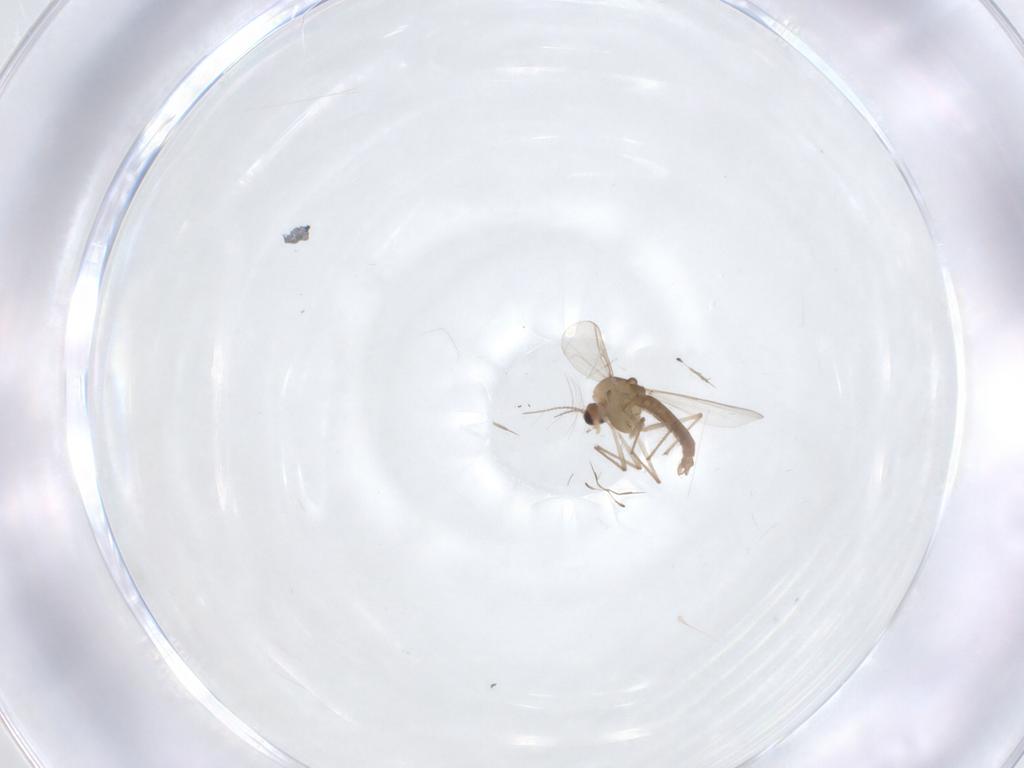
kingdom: Animalia
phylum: Arthropoda
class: Insecta
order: Diptera
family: Chironomidae
